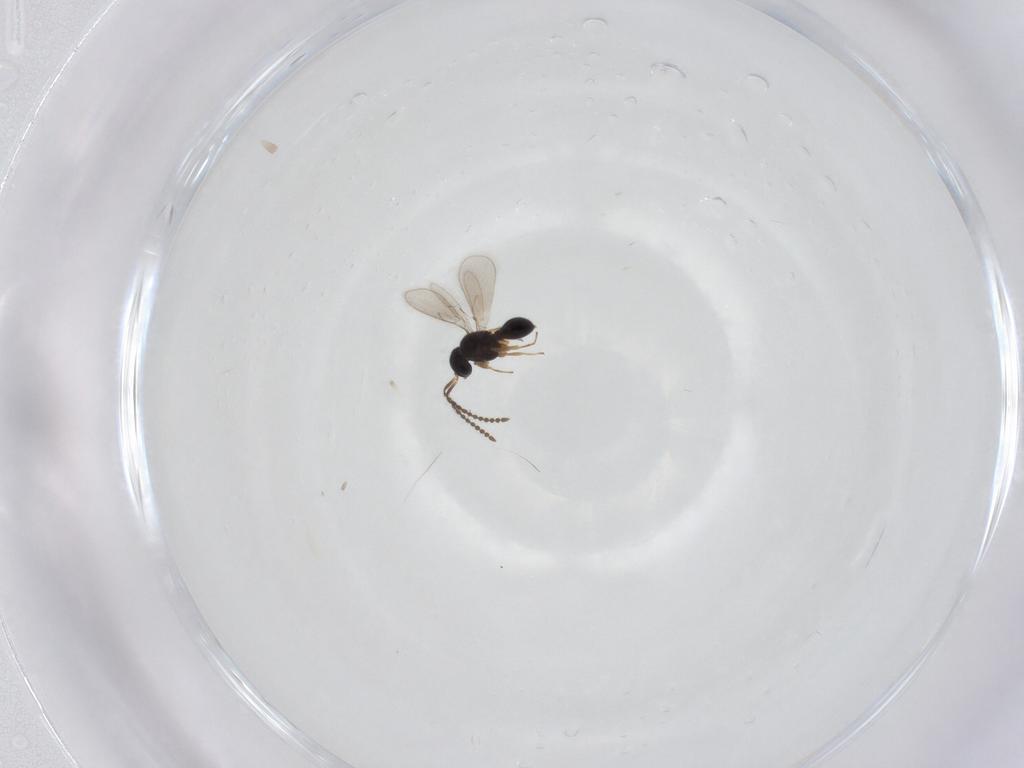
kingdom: Animalia
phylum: Arthropoda
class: Insecta
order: Hymenoptera
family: Scelionidae
